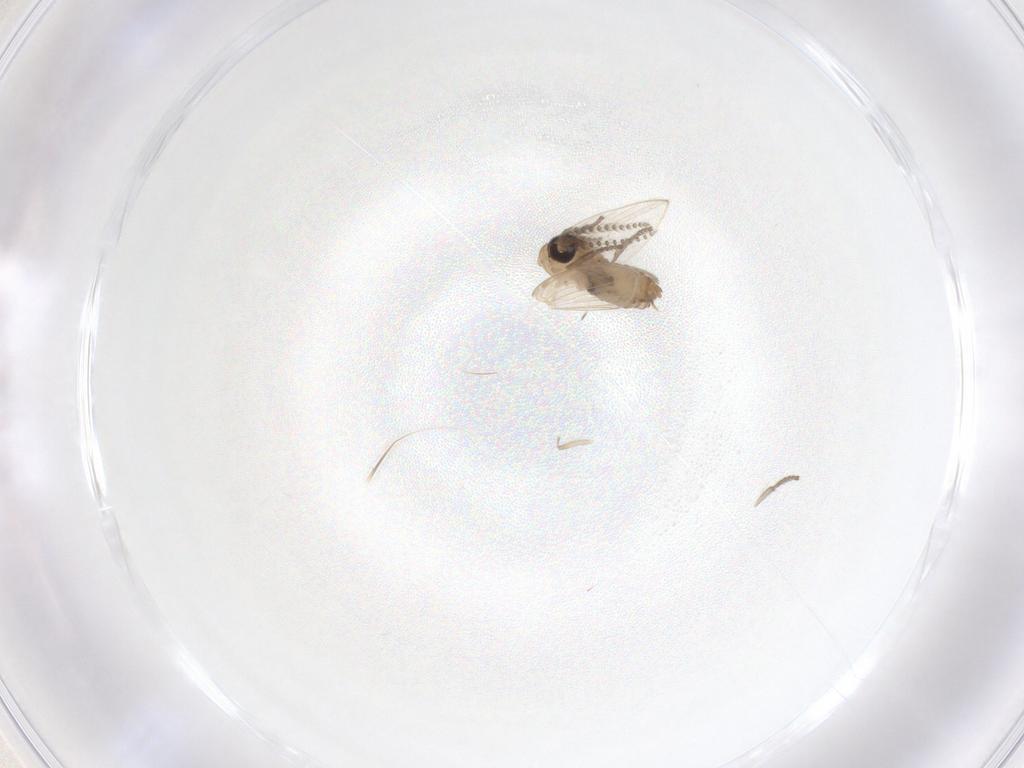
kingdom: Animalia
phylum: Arthropoda
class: Insecta
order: Diptera
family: Psychodidae
